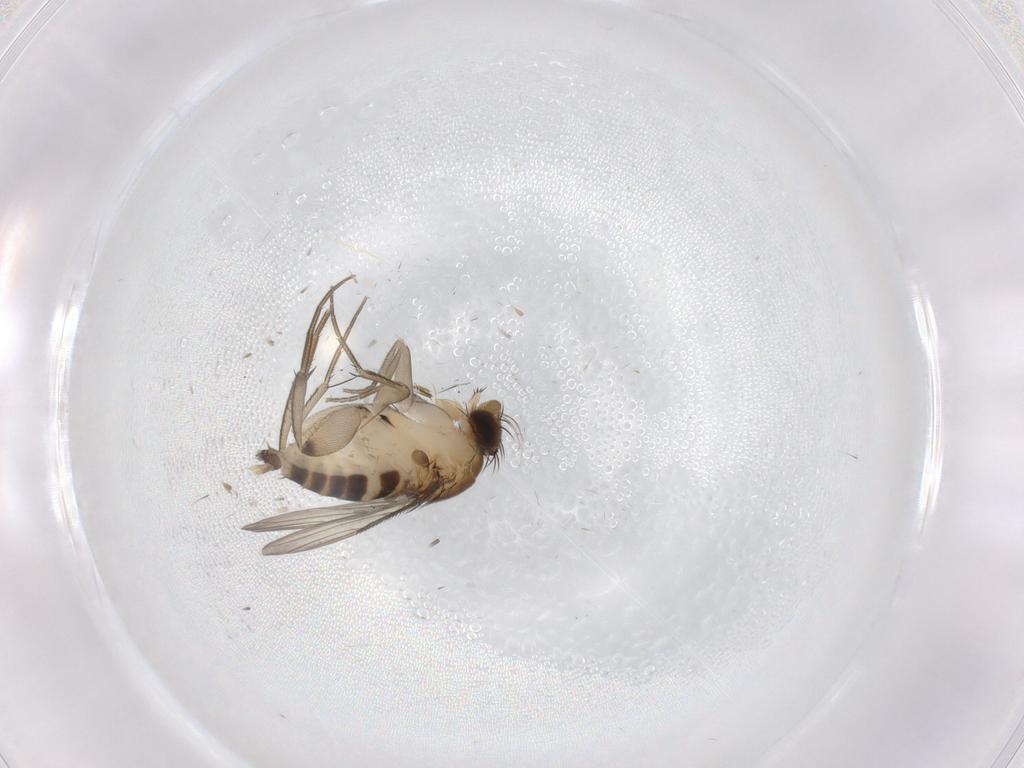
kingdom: Animalia
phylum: Arthropoda
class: Insecta
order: Diptera
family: Phoridae
